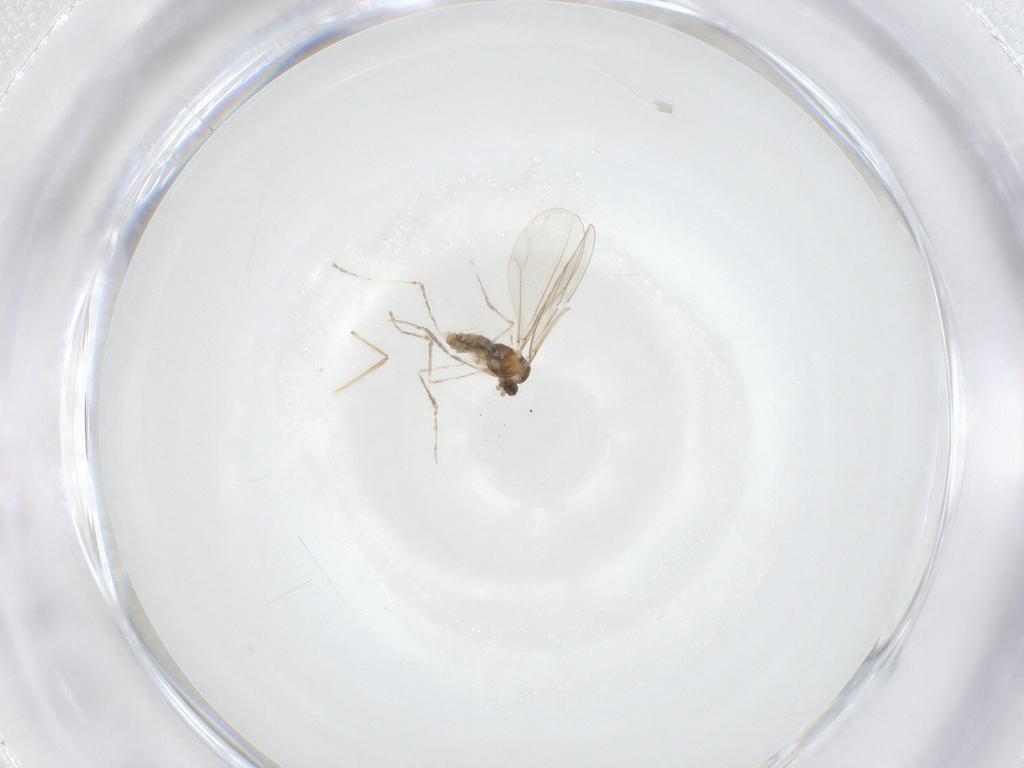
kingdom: Animalia
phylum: Arthropoda
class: Insecta
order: Diptera
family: Cecidomyiidae
